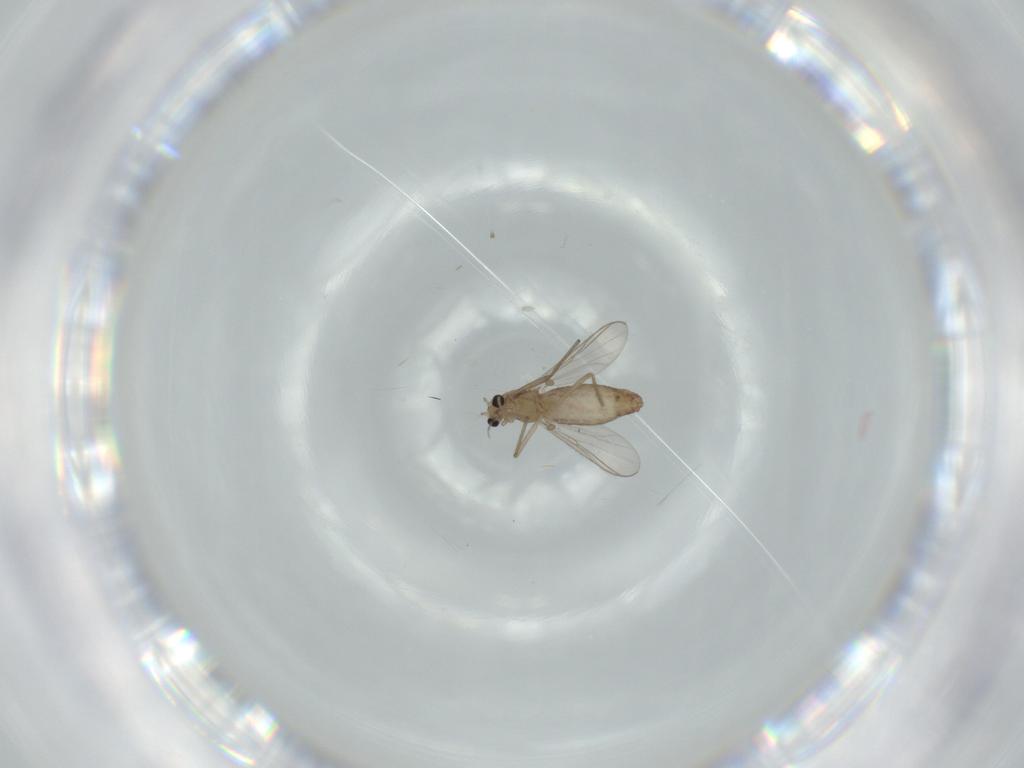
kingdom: Animalia
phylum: Arthropoda
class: Insecta
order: Diptera
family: Chironomidae
